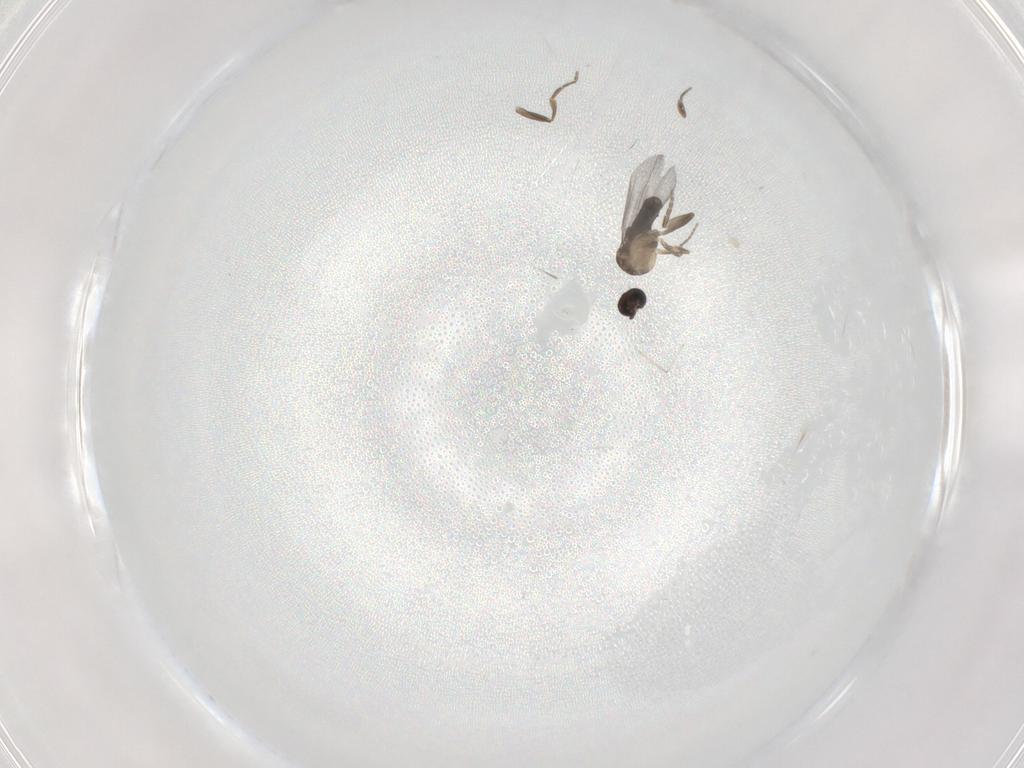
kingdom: Animalia
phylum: Arthropoda
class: Insecta
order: Diptera
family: Cecidomyiidae
